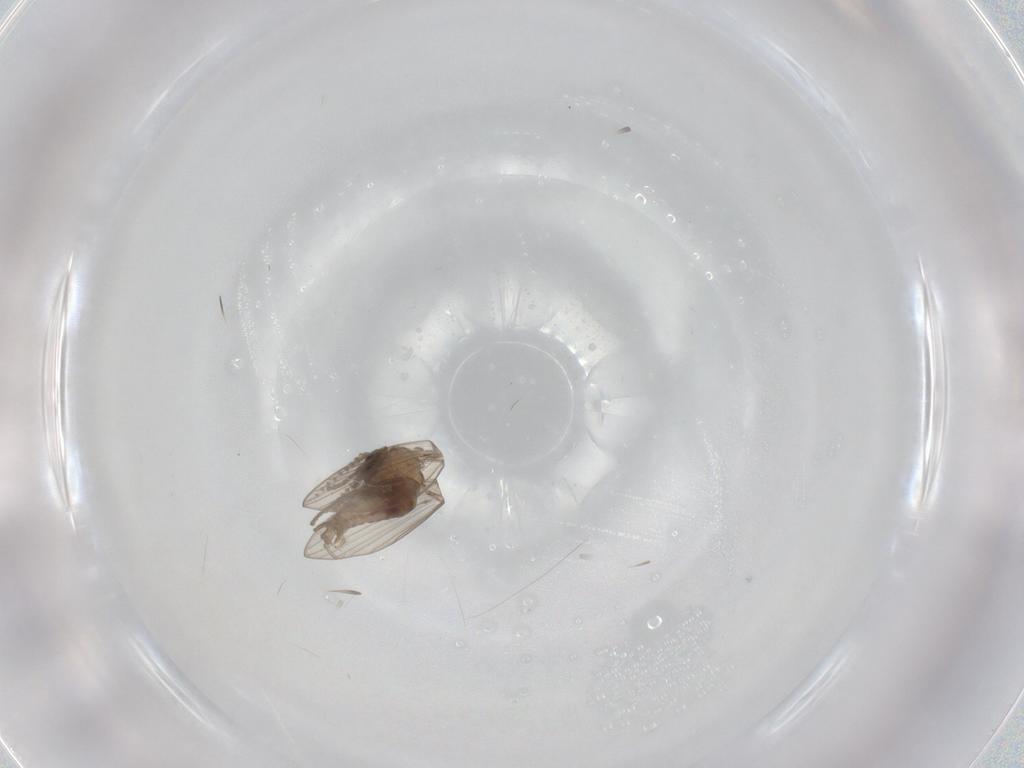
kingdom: Animalia
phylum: Arthropoda
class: Insecta
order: Diptera
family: Psychodidae
